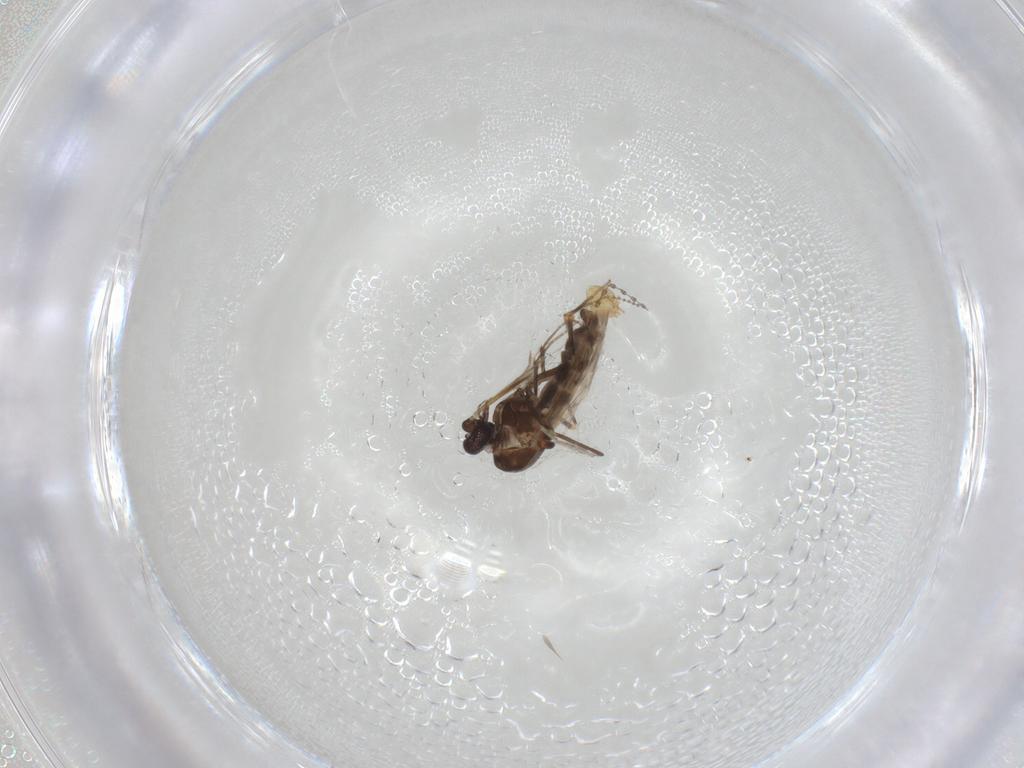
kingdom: Animalia
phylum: Arthropoda
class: Insecta
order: Diptera
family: Ceratopogonidae
